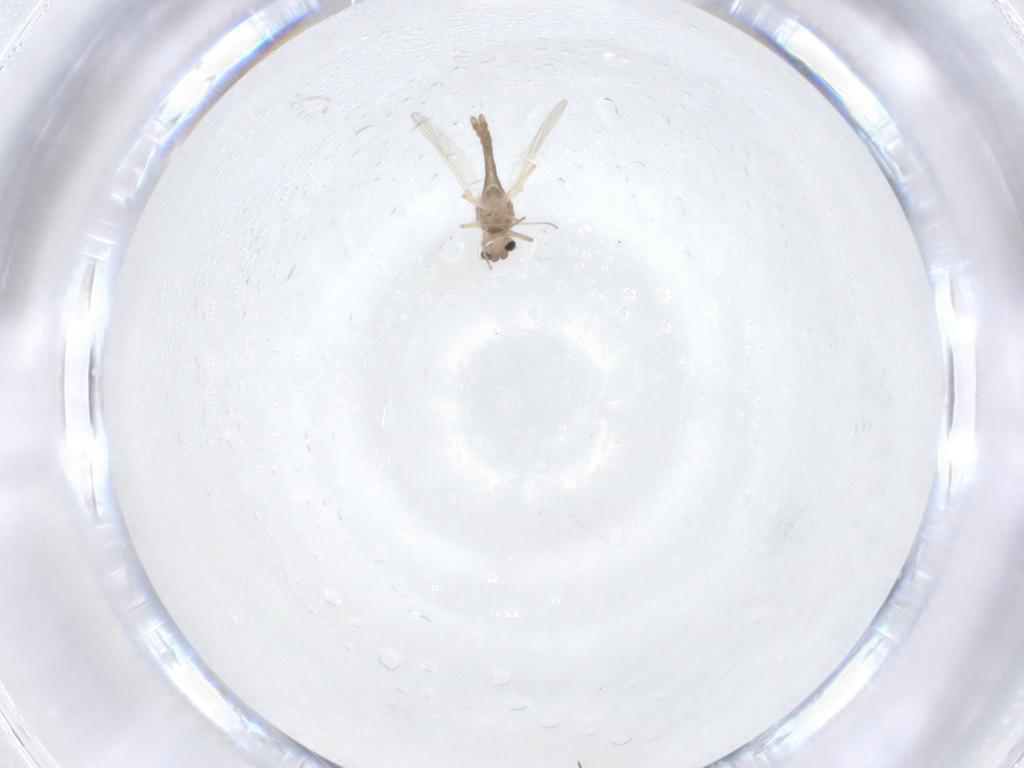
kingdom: Animalia
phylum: Arthropoda
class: Insecta
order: Diptera
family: Chironomidae
